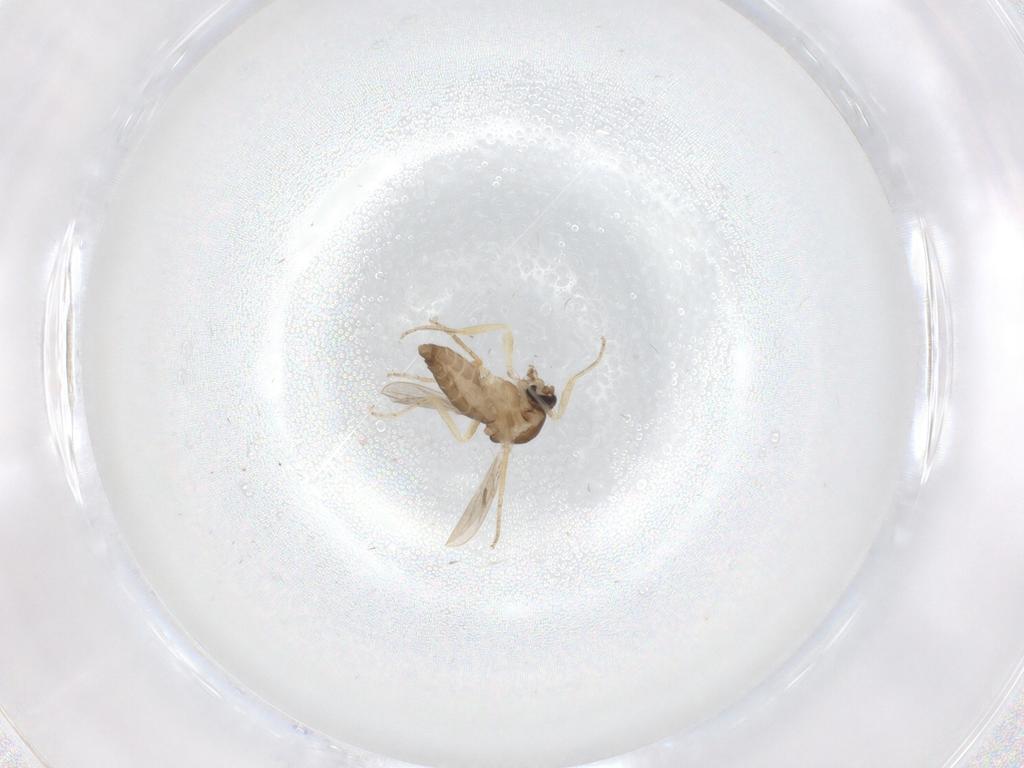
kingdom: Animalia
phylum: Arthropoda
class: Insecta
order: Diptera
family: Ceratopogonidae
